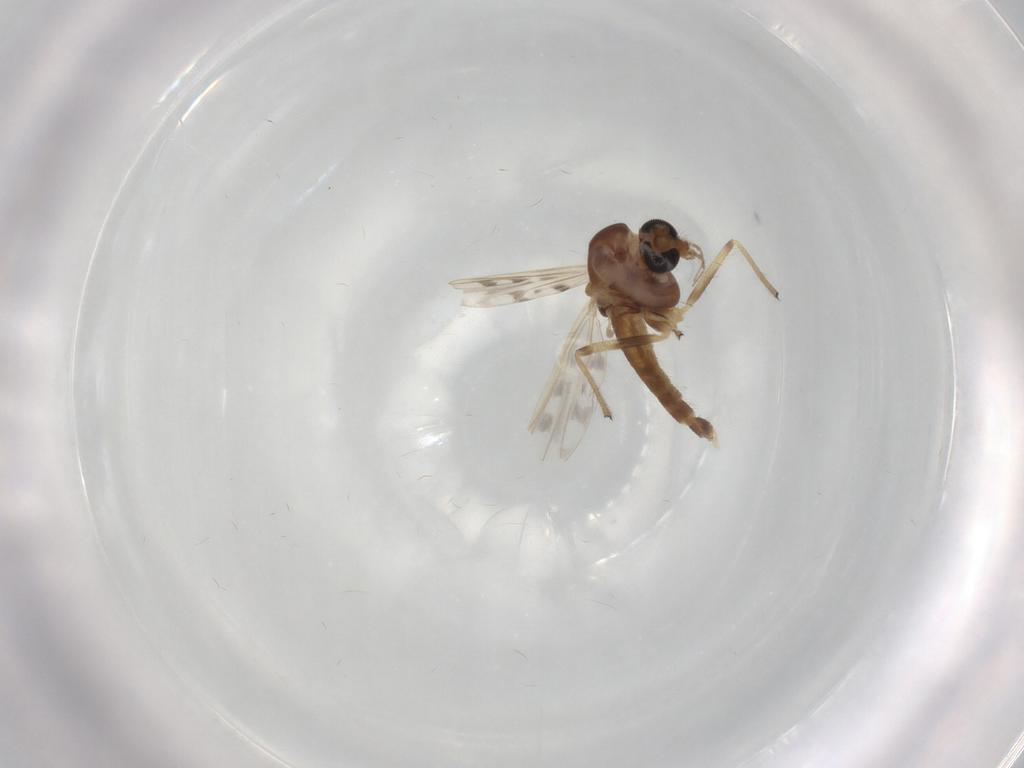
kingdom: Animalia
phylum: Arthropoda
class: Insecta
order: Diptera
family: Chironomidae
